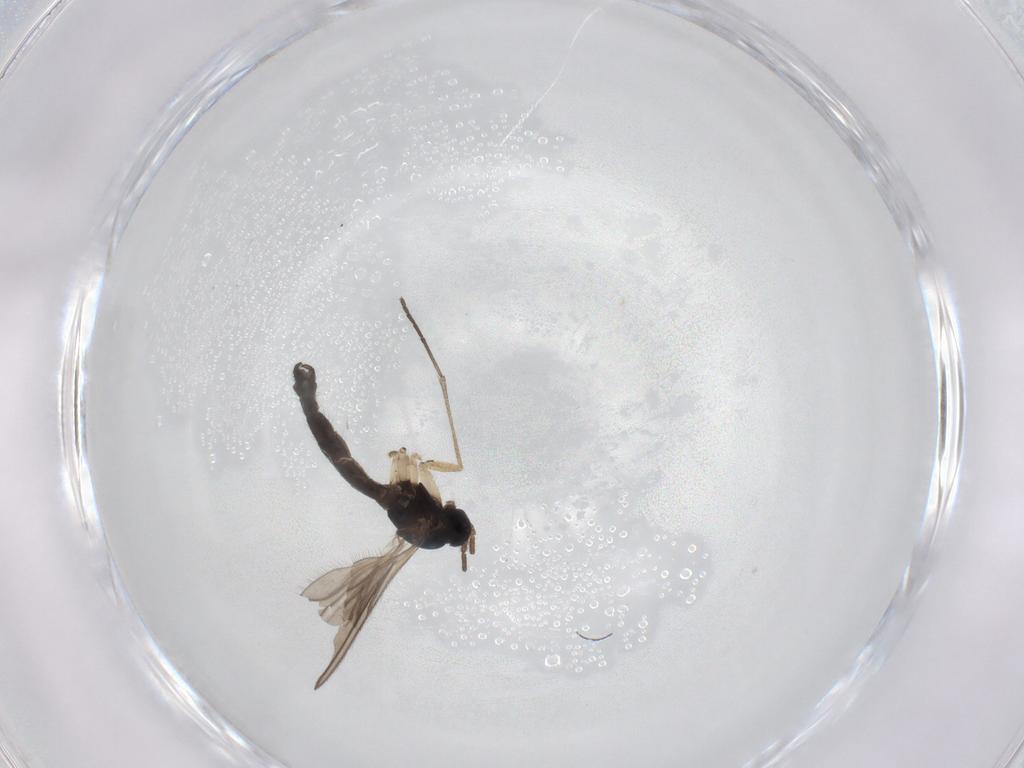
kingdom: Animalia
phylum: Arthropoda
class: Insecta
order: Diptera
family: Sciaridae
